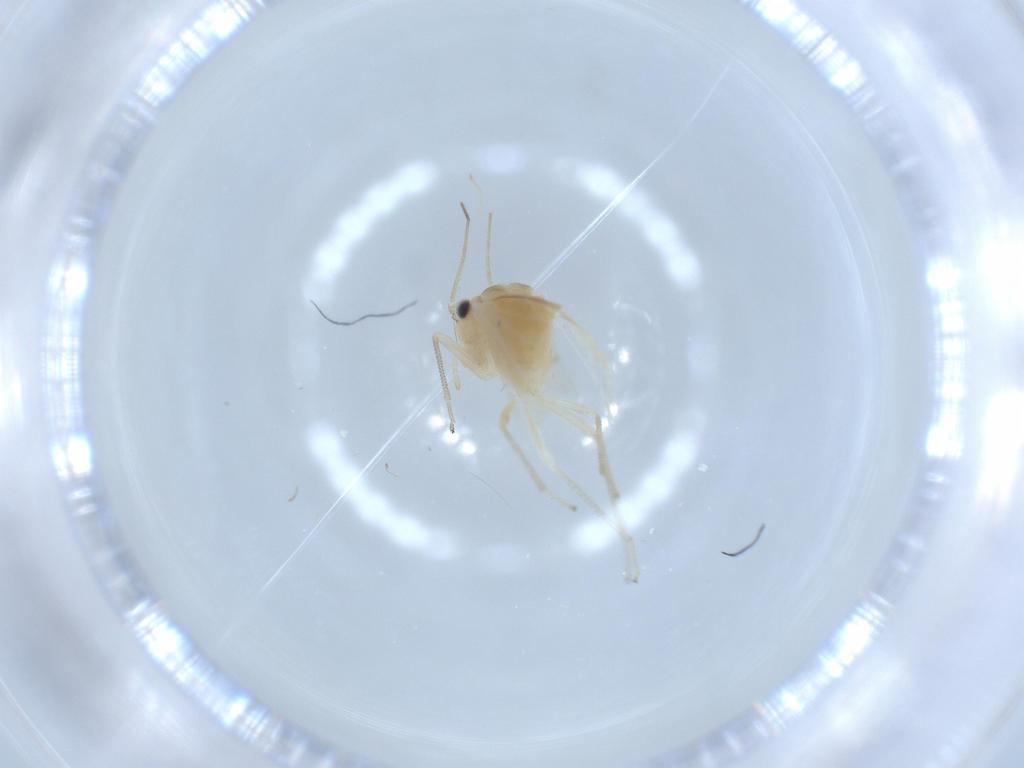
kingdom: Animalia
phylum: Arthropoda
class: Insecta
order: Psocodea
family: Caeciliusidae
